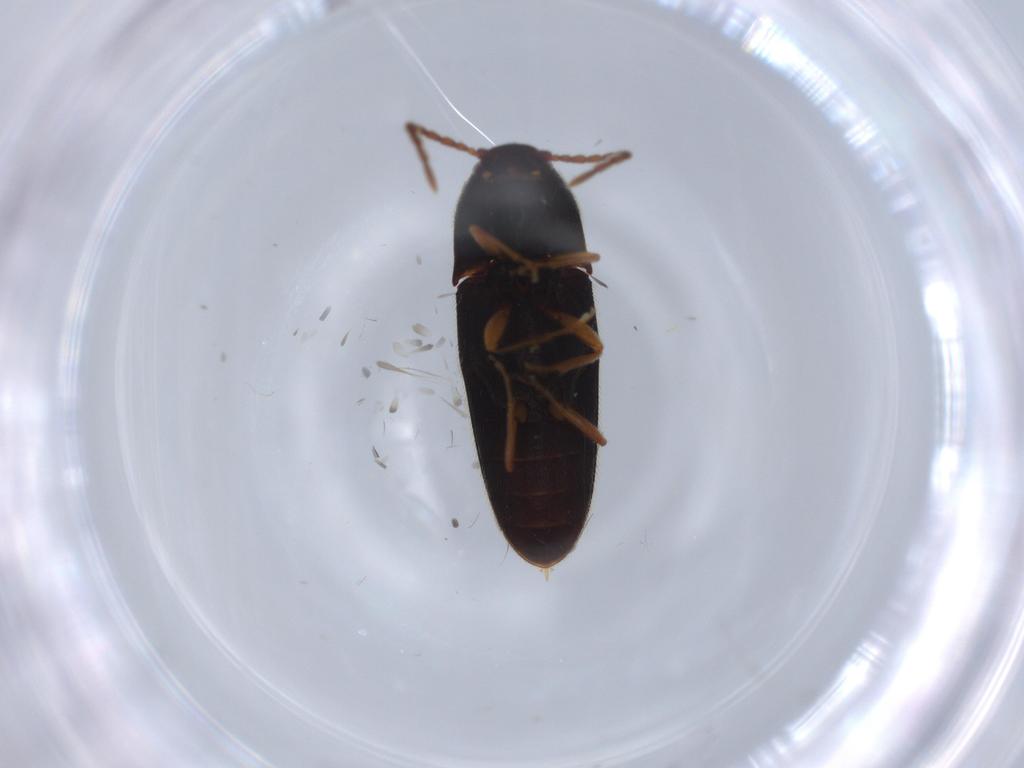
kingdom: Animalia
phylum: Arthropoda
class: Insecta
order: Coleoptera
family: Elateridae
